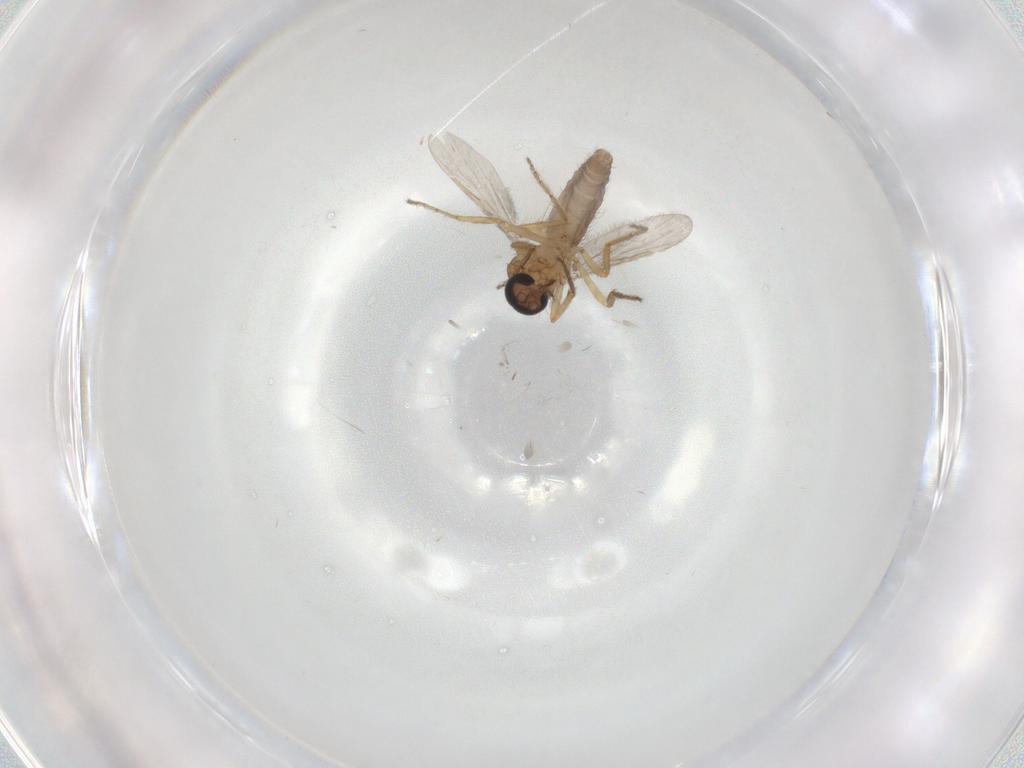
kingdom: Animalia
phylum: Arthropoda
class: Insecta
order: Diptera
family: Ceratopogonidae
